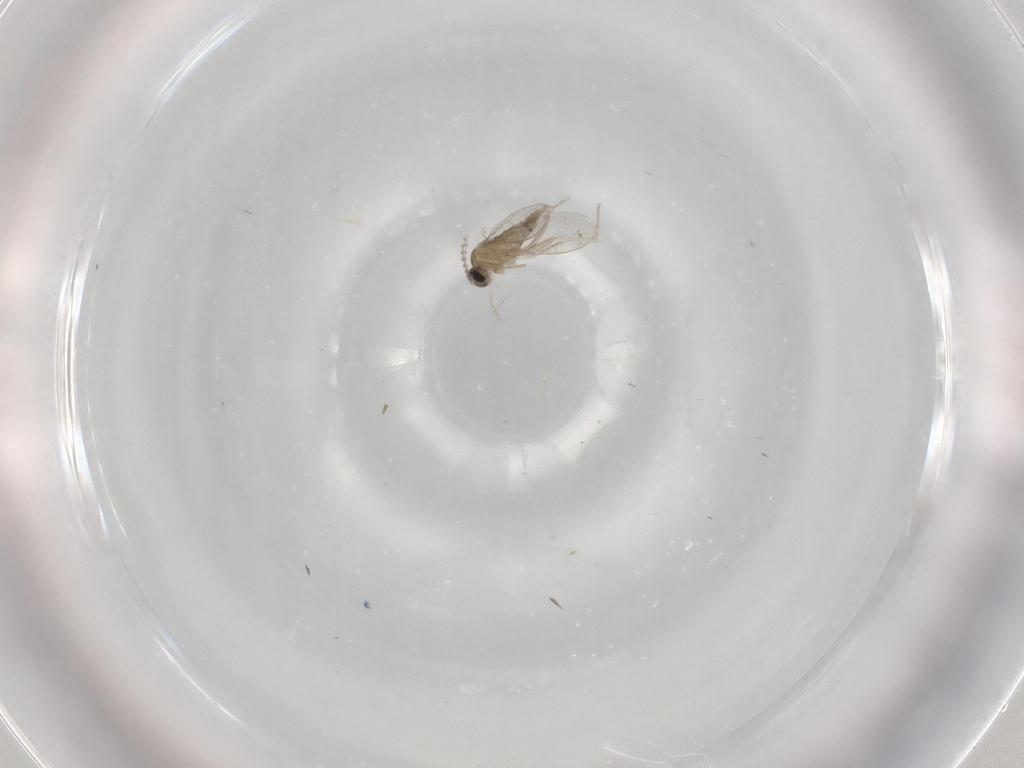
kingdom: Animalia
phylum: Arthropoda
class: Insecta
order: Diptera
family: Cecidomyiidae
